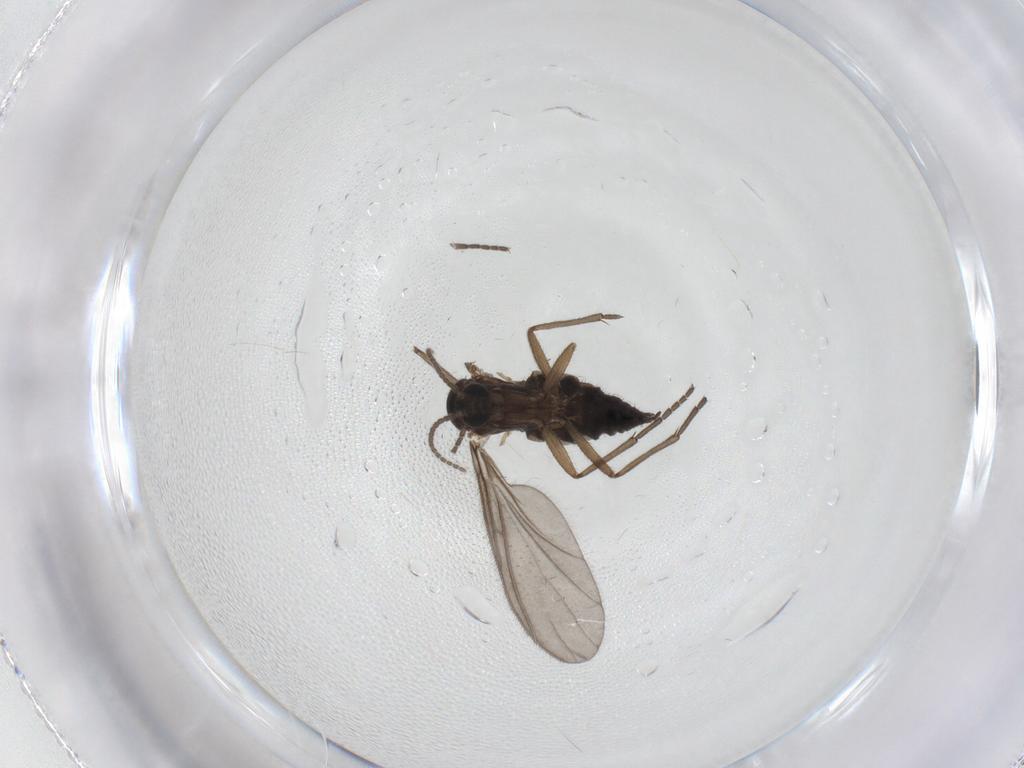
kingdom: Animalia
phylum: Arthropoda
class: Insecta
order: Diptera
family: Sciaridae
